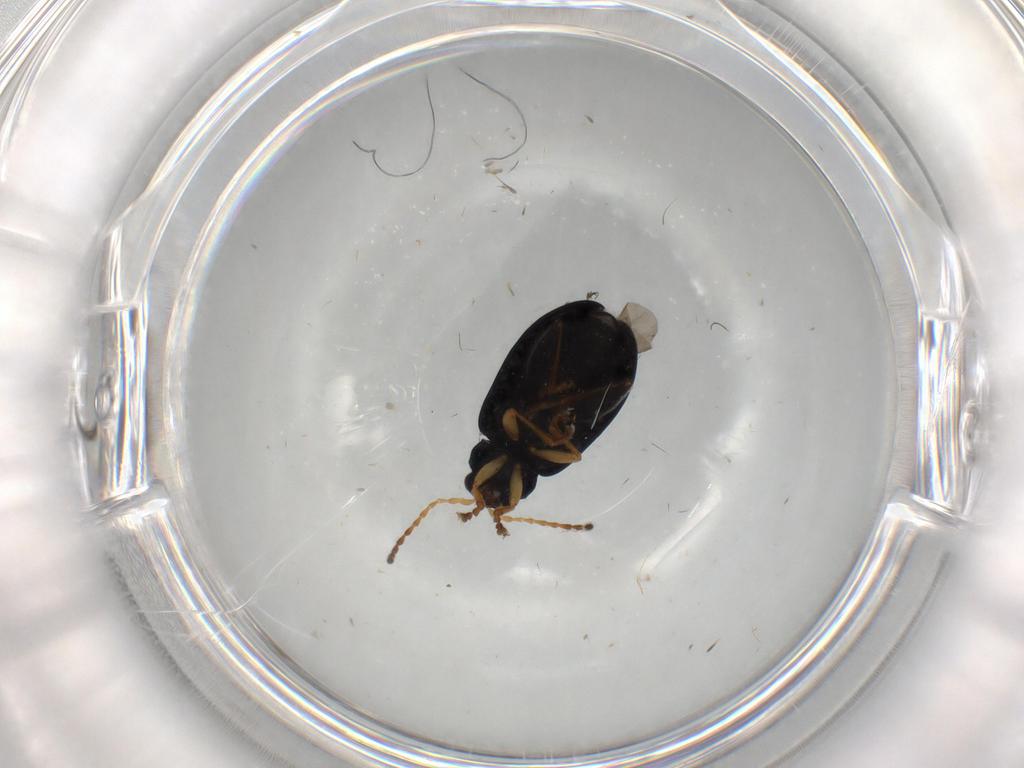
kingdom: Animalia
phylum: Arthropoda
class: Insecta
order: Coleoptera
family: Chrysomelidae
